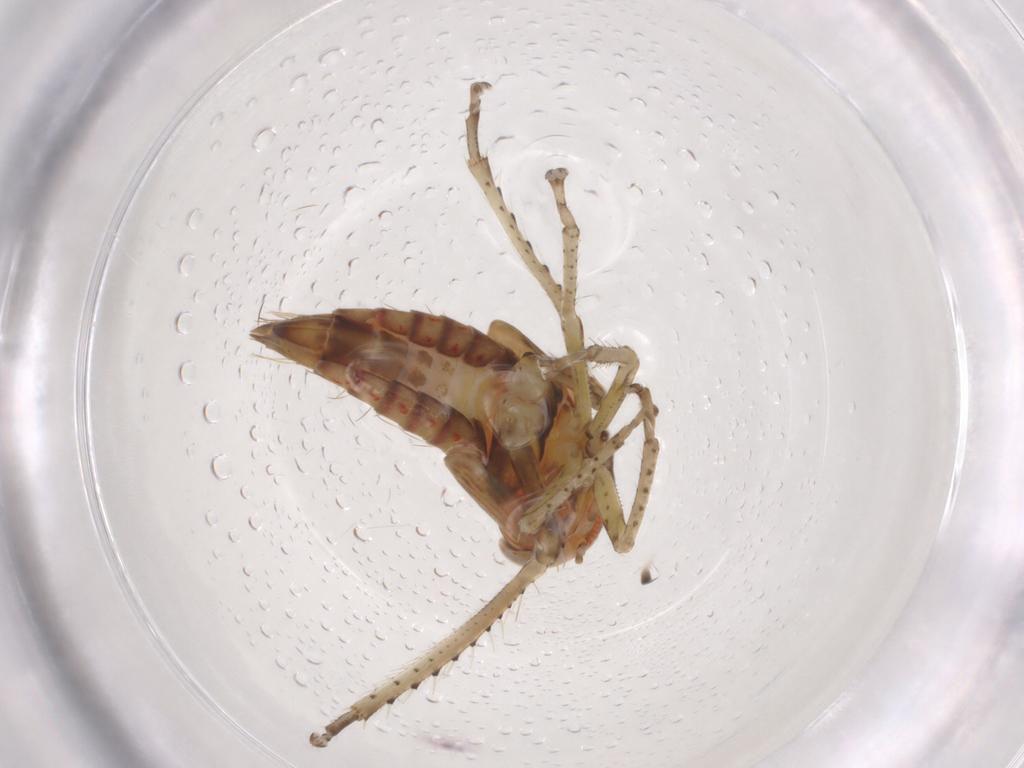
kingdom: Animalia
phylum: Arthropoda
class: Insecta
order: Hemiptera
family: Cicadellidae
